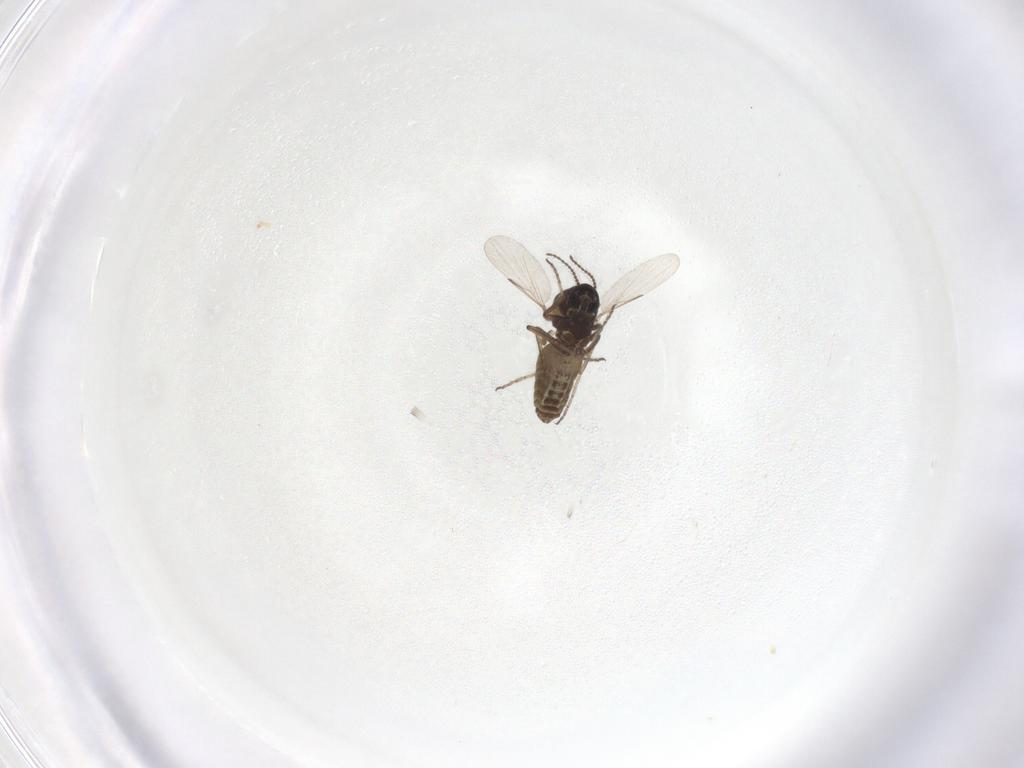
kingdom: Animalia
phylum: Arthropoda
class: Insecta
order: Diptera
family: Ceratopogonidae
